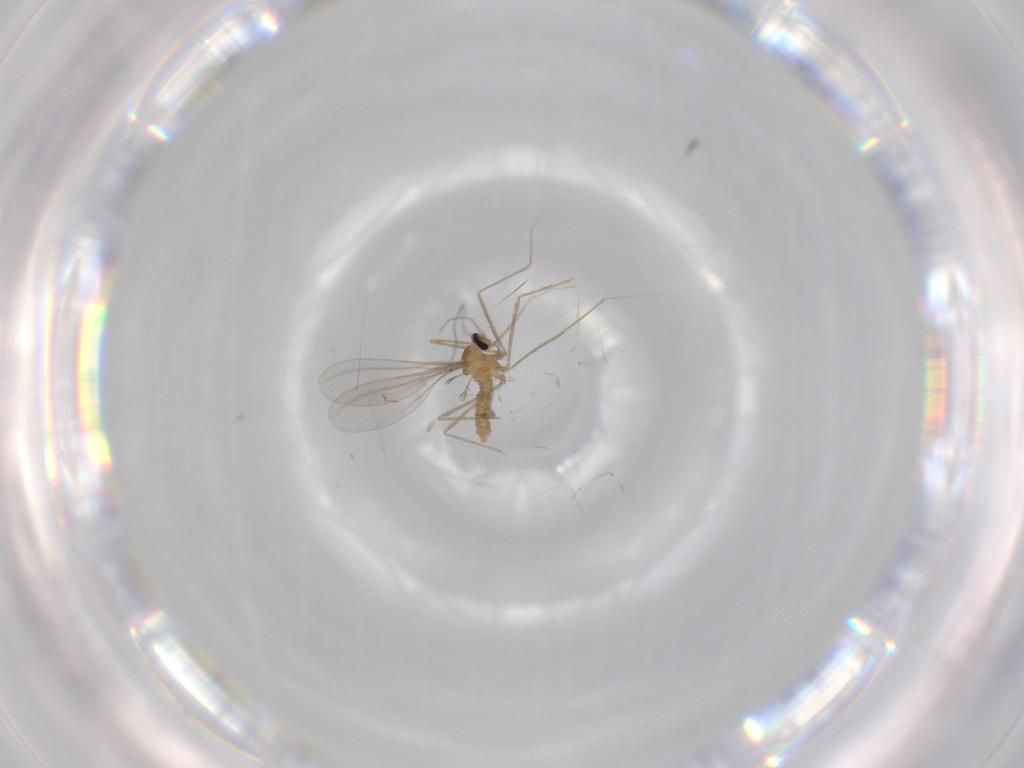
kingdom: Animalia
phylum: Arthropoda
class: Insecta
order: Diptera
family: Cecidomyiidae
